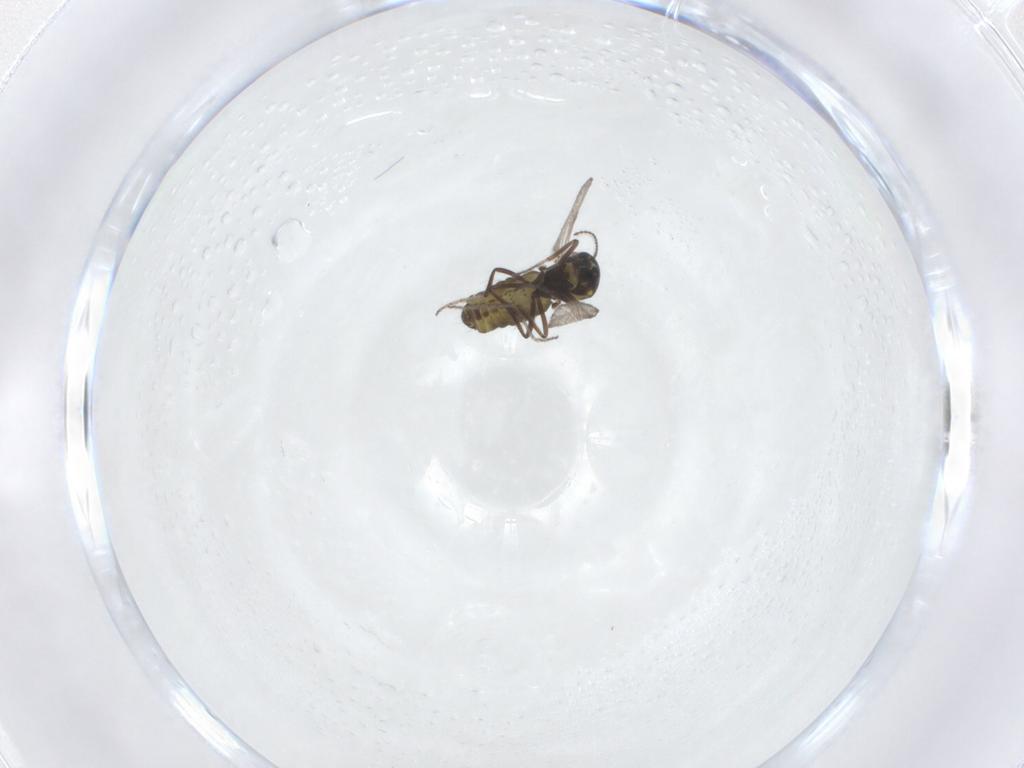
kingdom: Animalia
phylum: Arthropoda
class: Insecta
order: Diptera
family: Ceratopogonidae
